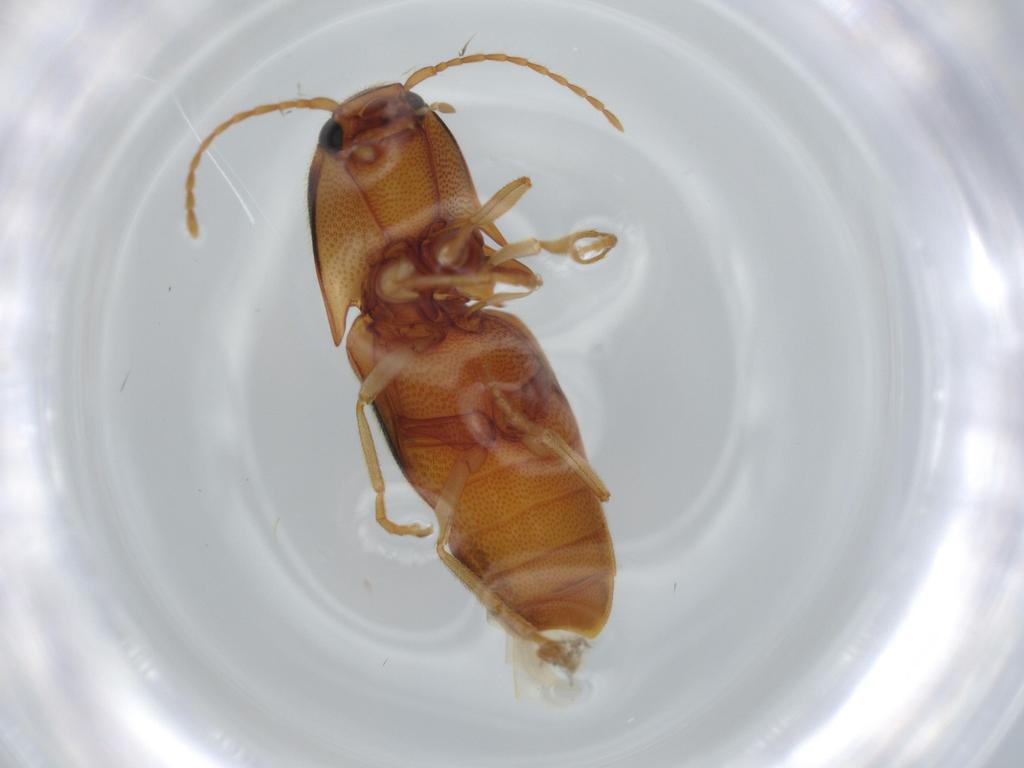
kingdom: Animalia
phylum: Arthropoda
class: Insecta
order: Coleoptera
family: Elateridae
